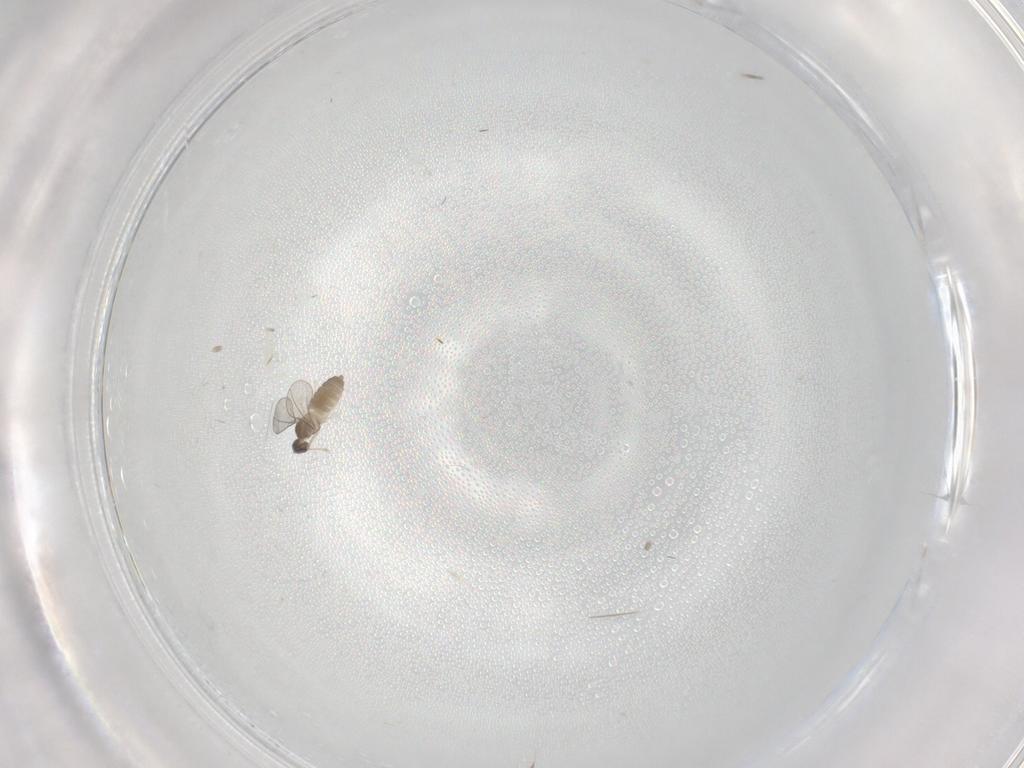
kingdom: Animalia
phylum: Arthropoda
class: Insecta
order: Diptera
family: Cecidomyiidae
